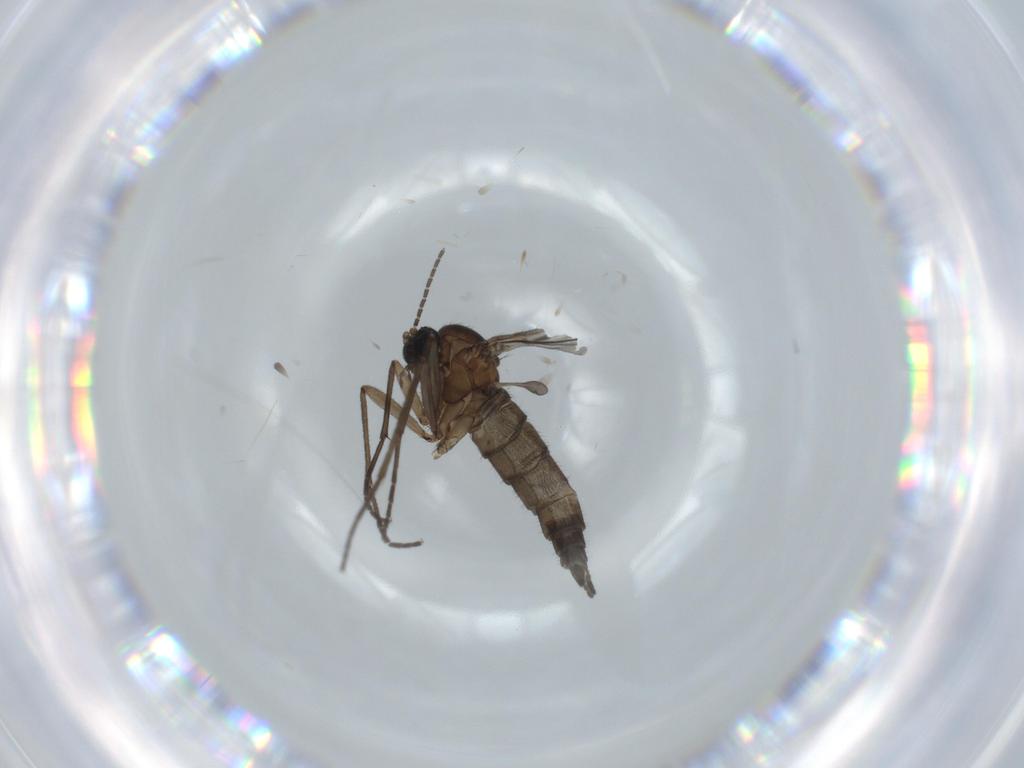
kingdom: Animalia
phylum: Arthropoda
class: Insecta
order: Diptera
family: Sciaridae
